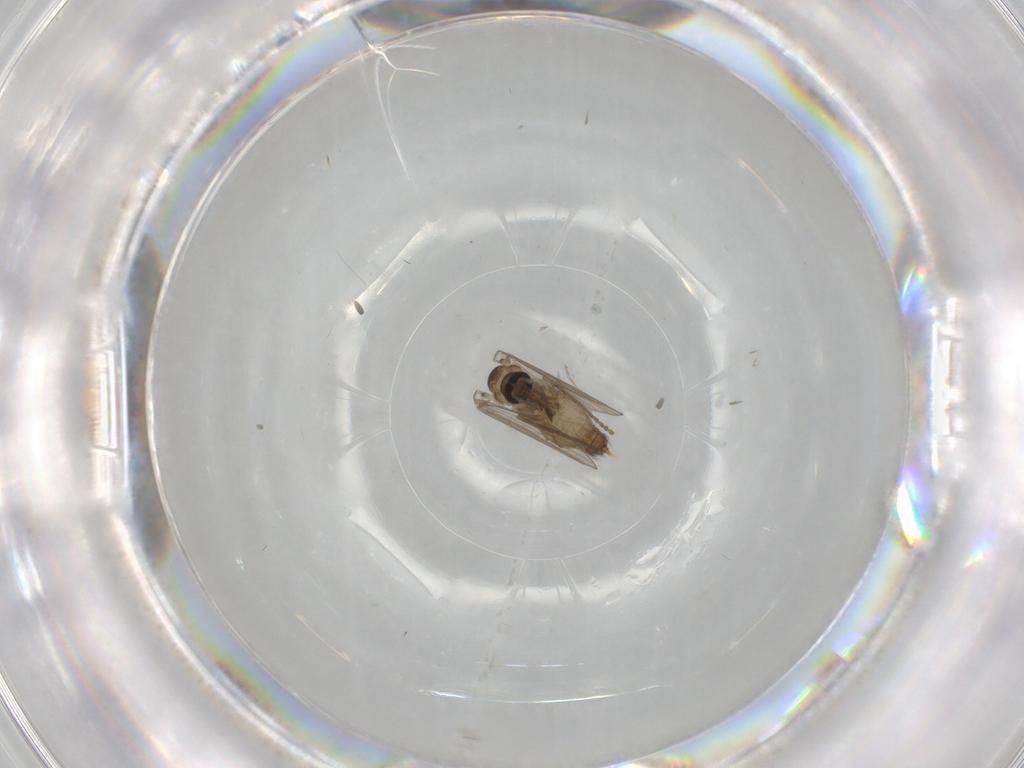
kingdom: Animalia
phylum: Arthropoda
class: Insecta
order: Diptera
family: Psychodidae
